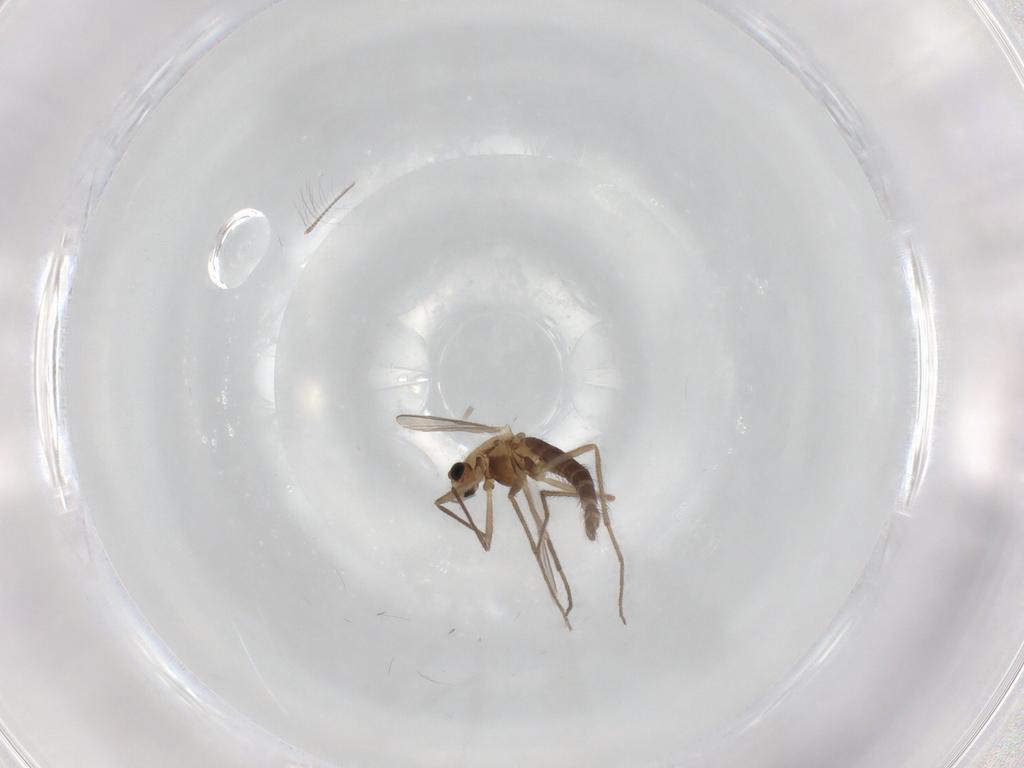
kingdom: Animalia
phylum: Arthropoda
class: Insecta
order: Diptera
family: Chironomidae
